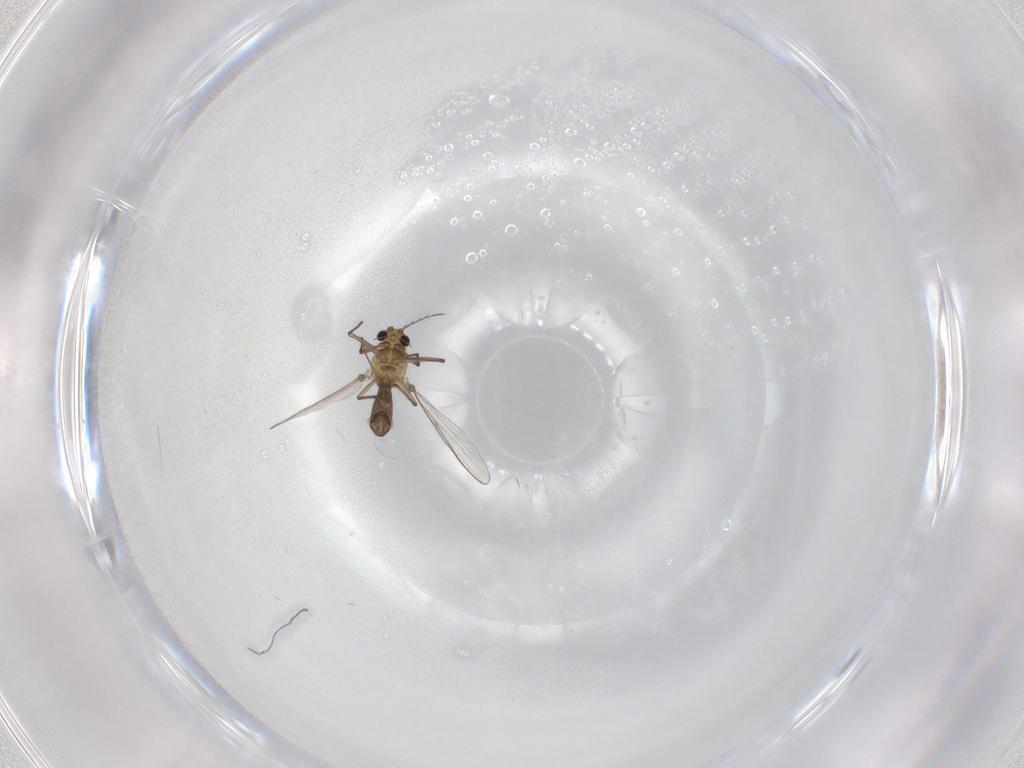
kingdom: Animalia
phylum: Arthropoda
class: Insecta
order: Diptera
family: Chironomidae
